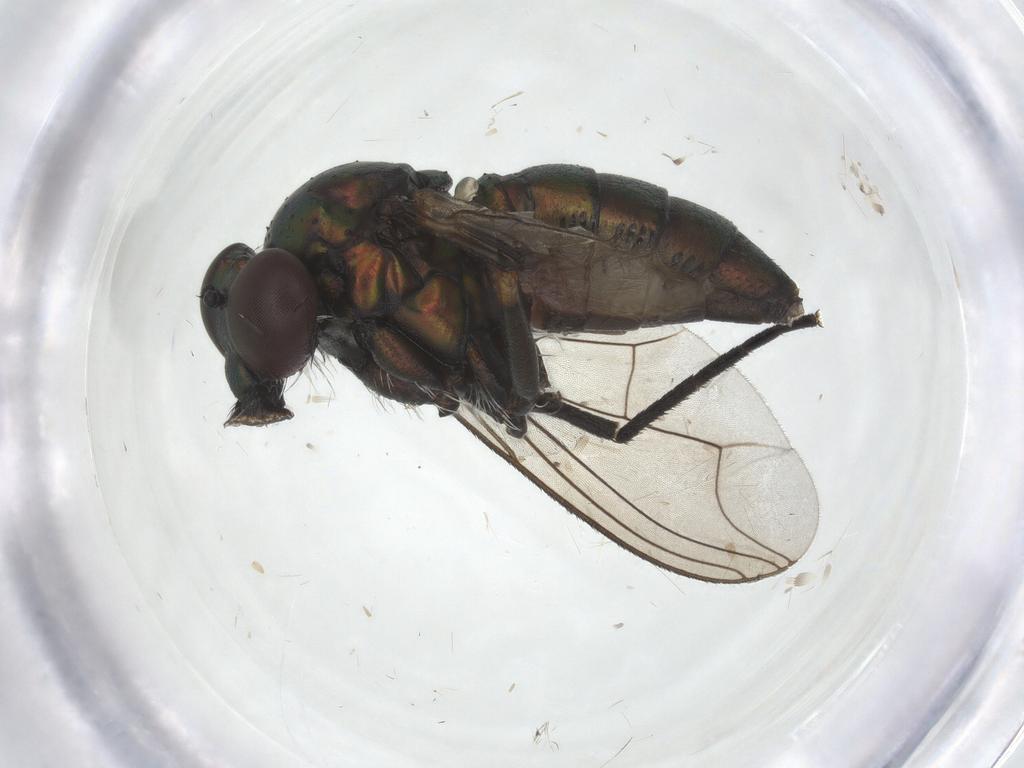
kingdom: Animalia
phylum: Arthropoda
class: Insecta
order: Diptera
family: Dolichopodidae
